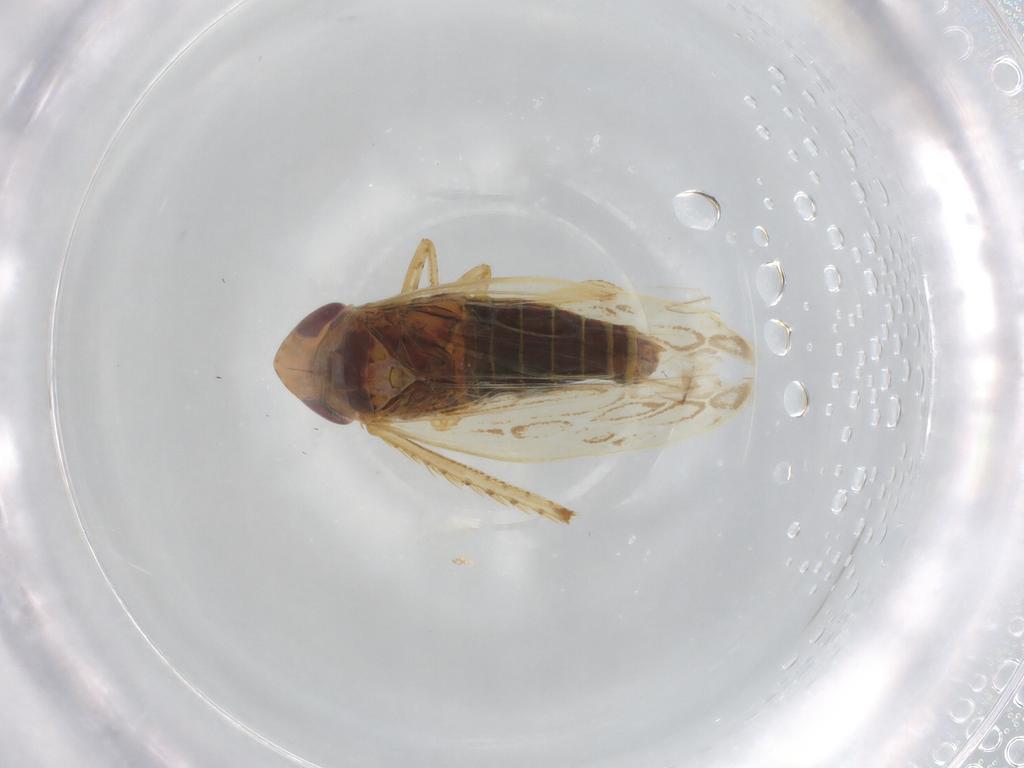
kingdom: Animalia
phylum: Arthropoda
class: Insecta
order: Hemiptera
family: Cicadellidae
